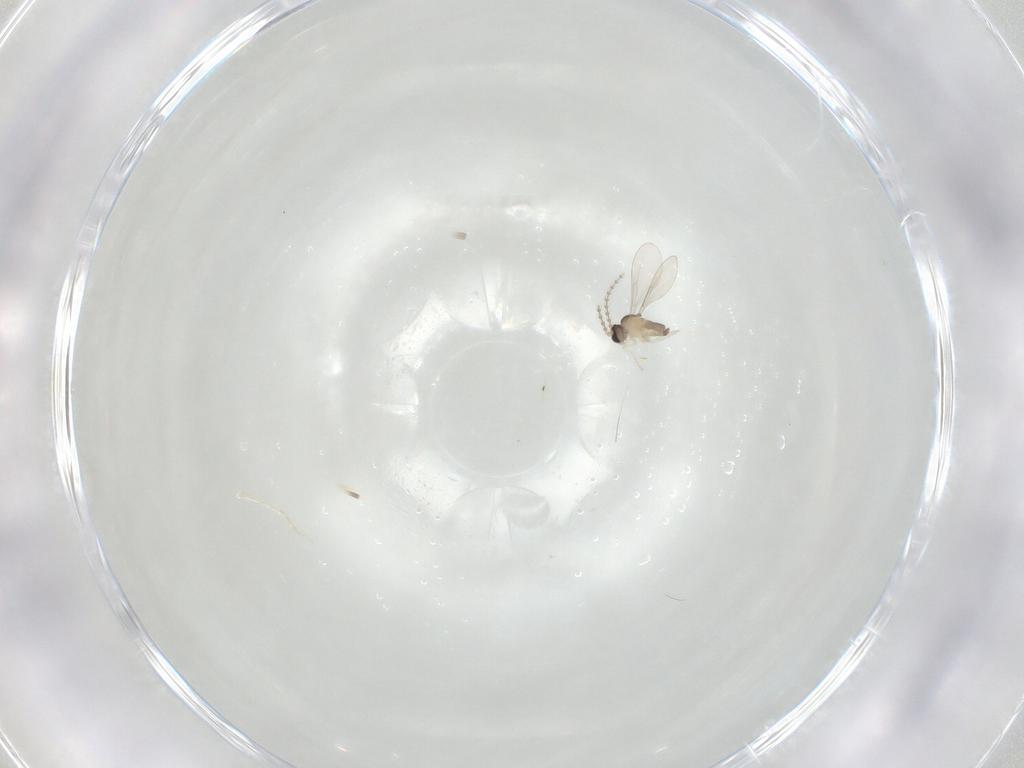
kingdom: Animalia
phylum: Arthropoda
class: Insecta
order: Diptera
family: Cecidomyiidae
